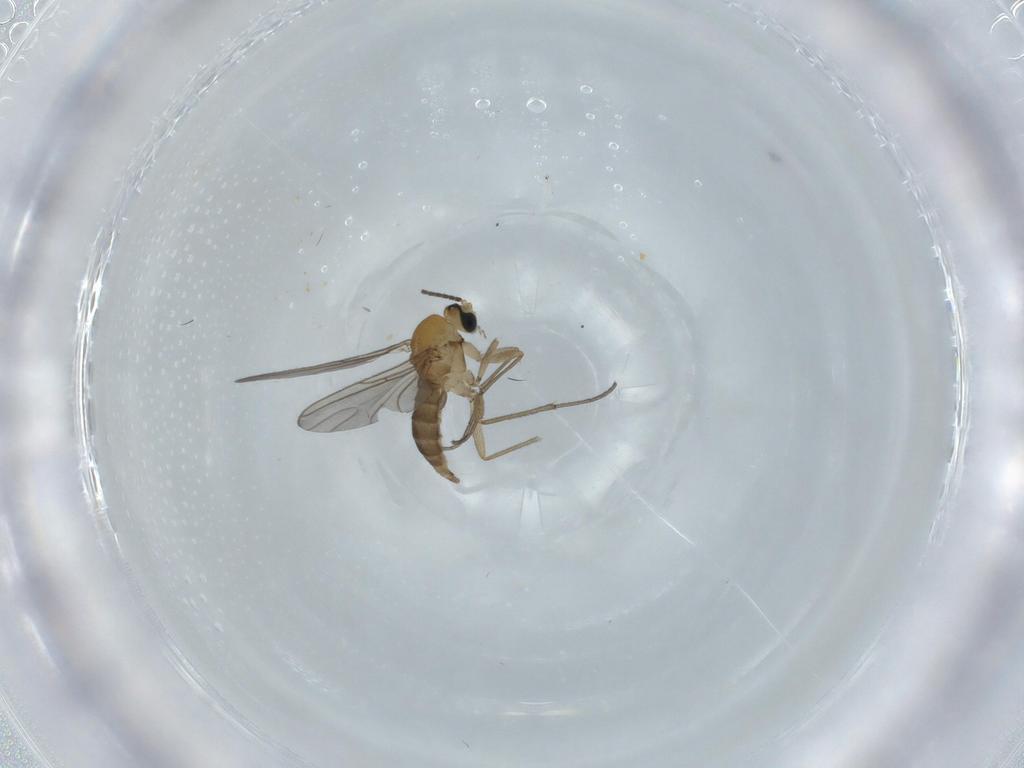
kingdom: Animalia
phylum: Arthropoda
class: Insecta
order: Diptera
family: Sciaridae
